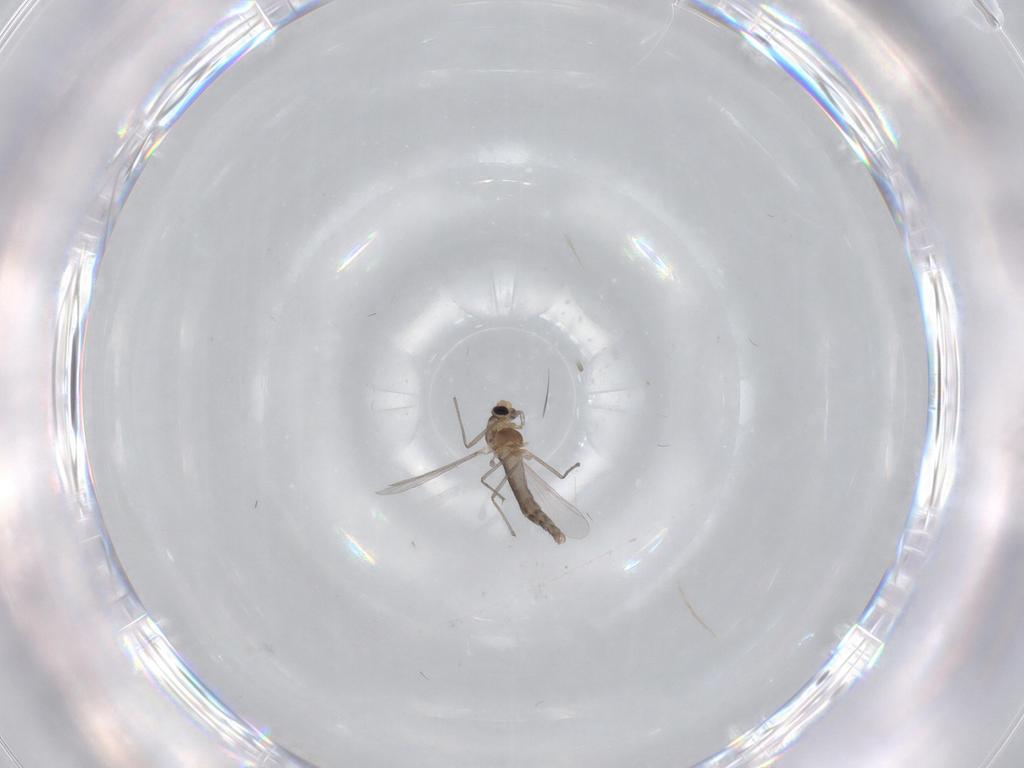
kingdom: Animalia
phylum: Arthropoda
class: Insecta
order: Diptera
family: Chironomidae
